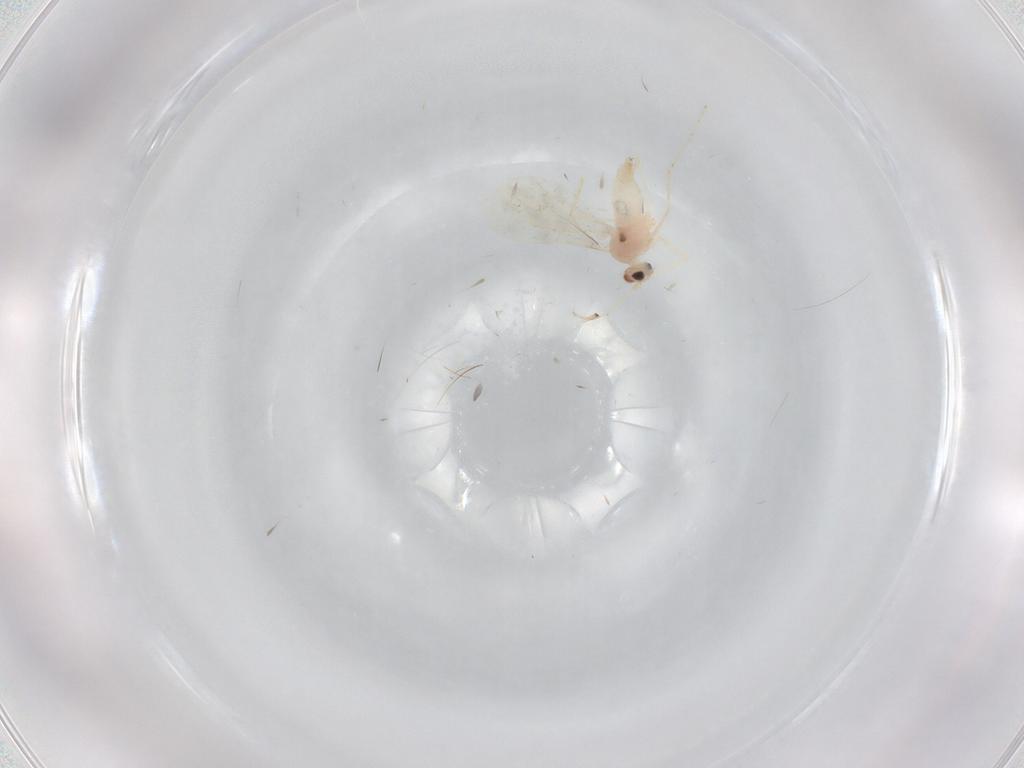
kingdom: Animalia
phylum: Arthropoda
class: Insecta
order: Diptera
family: Cecidomyiidae
